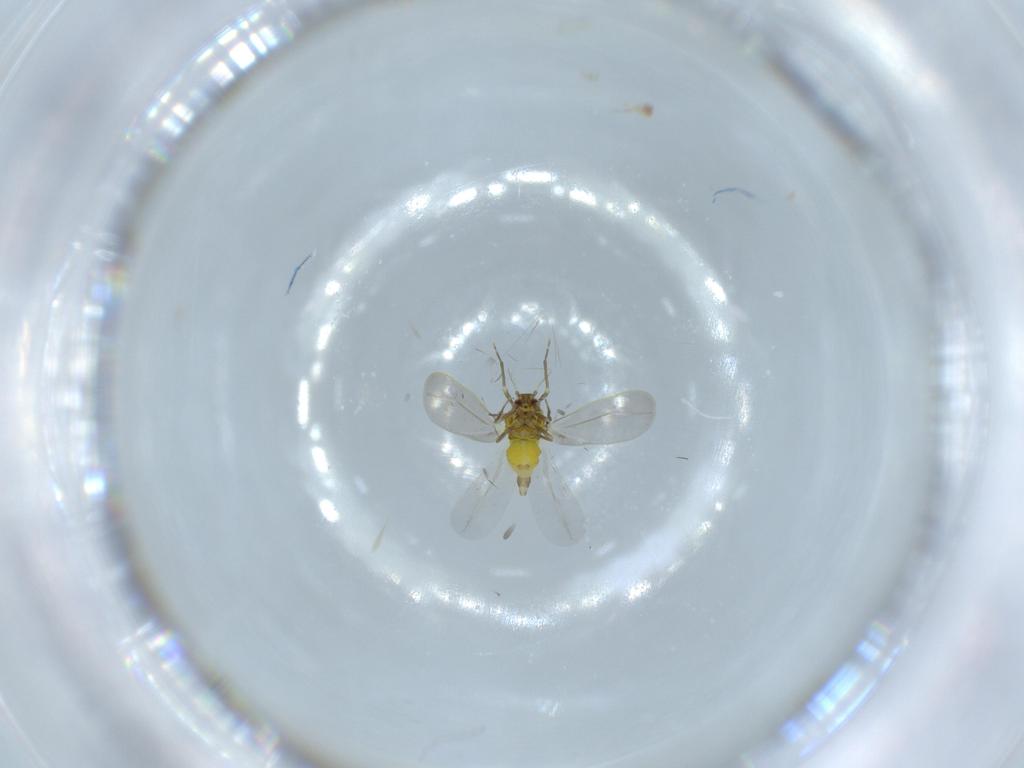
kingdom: Animalia
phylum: Arthropoda
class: Insecta
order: Hemiptera
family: Aleyrodidae
